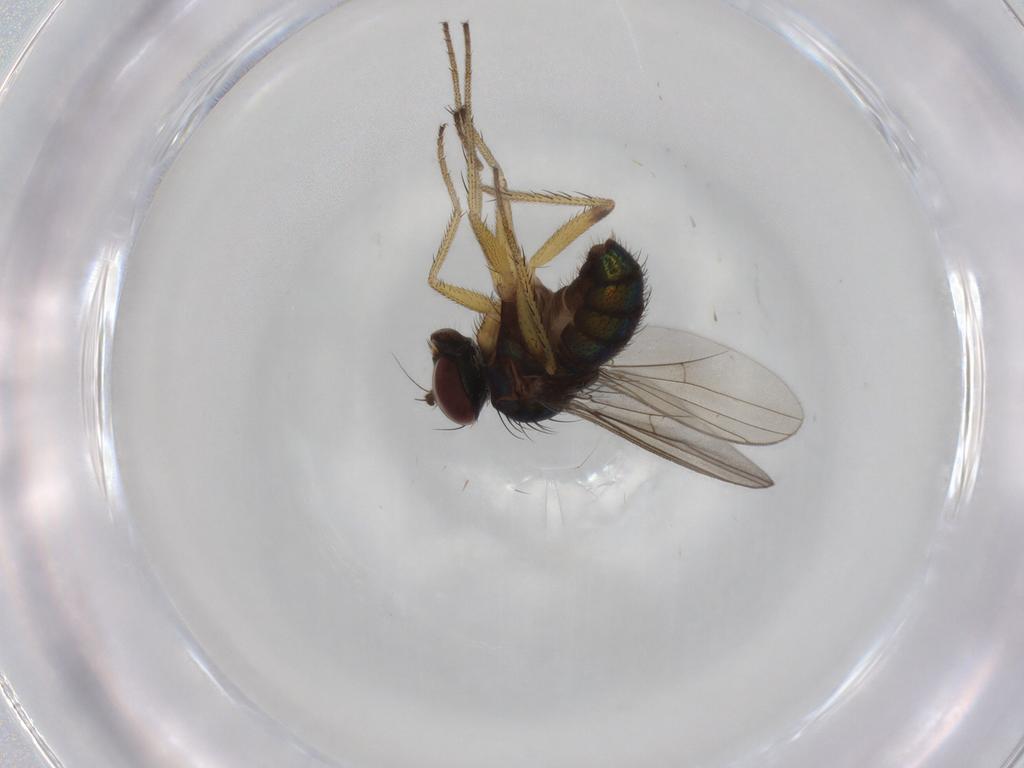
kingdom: Animalia
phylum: Arthropoda
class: Insecta
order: Diptera
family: Dolichopodidae
